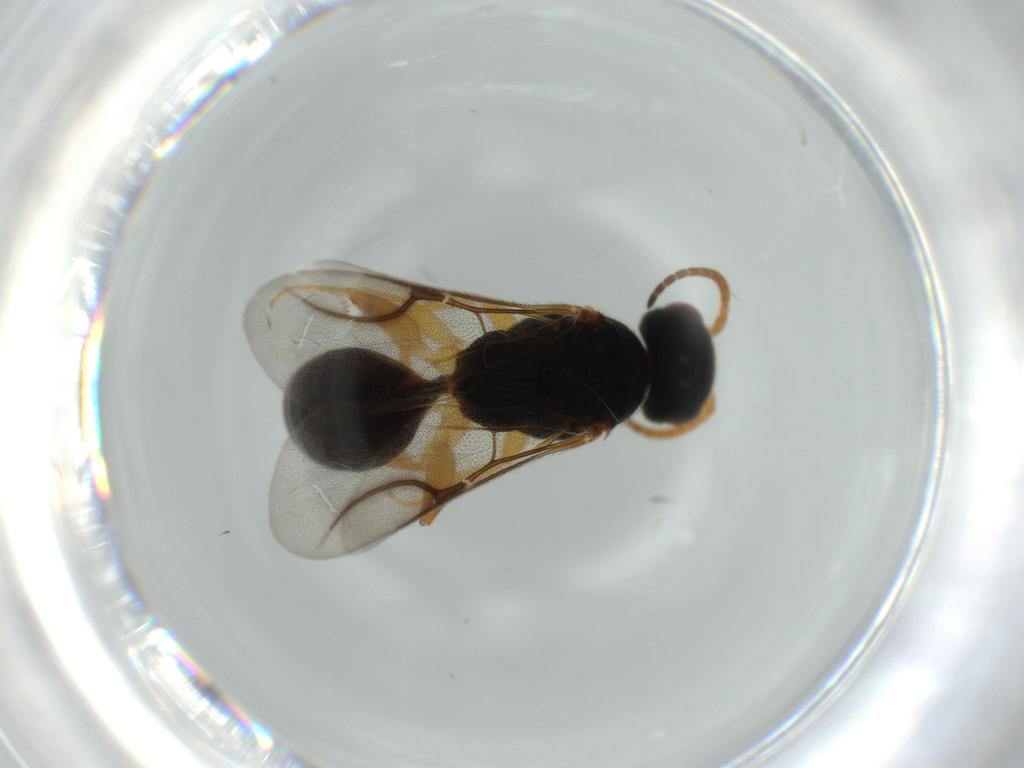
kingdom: Animalia
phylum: Arthropoda
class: Insecta
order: Hymenoptera
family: Bethylidae
